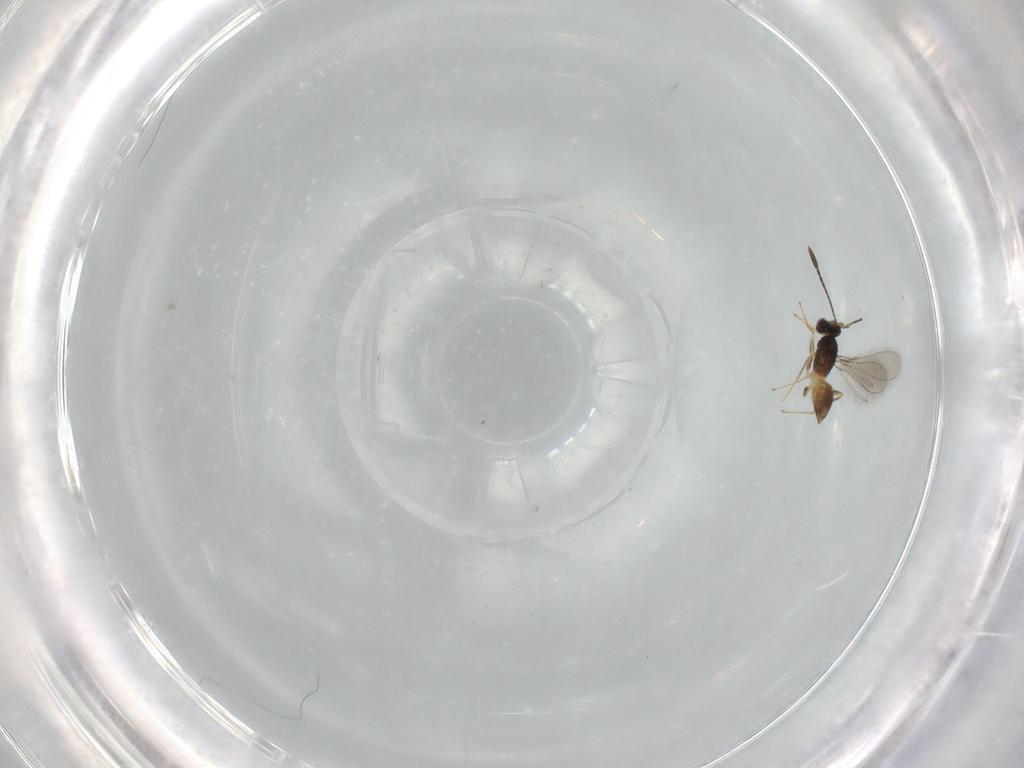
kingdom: Animalia
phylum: Arthropoda
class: Insecta
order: Hymenoptera
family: Mymaridae
